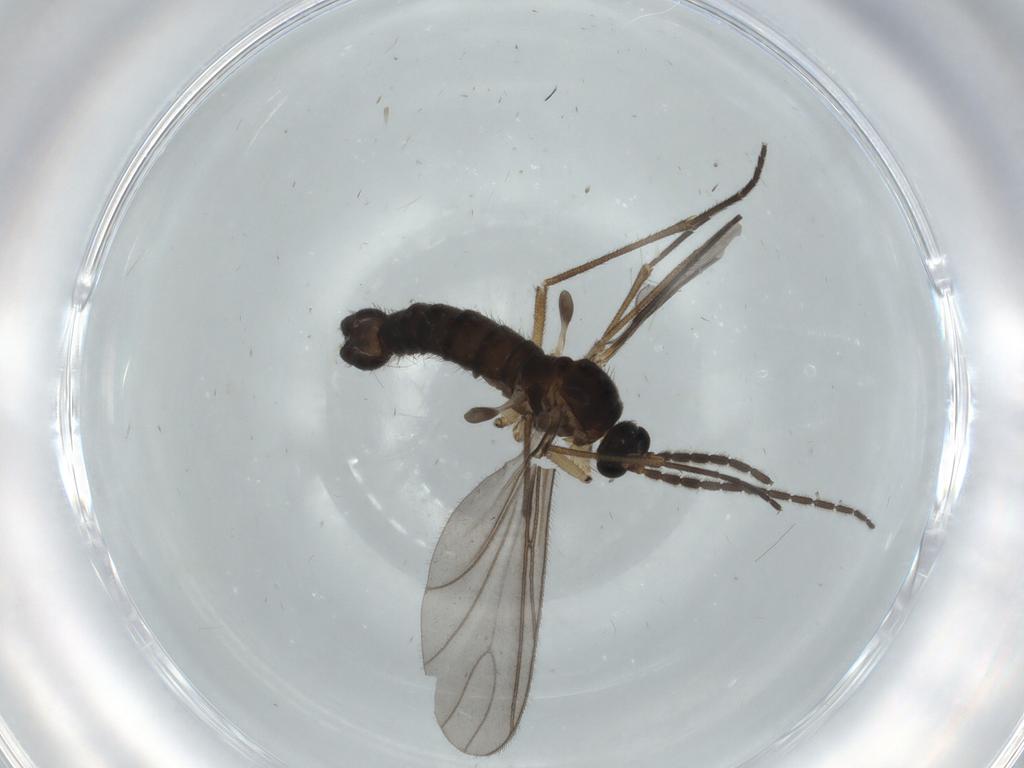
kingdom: Animalia
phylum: Arthropoda
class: Insecta
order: Diptera
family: Sciaridae
